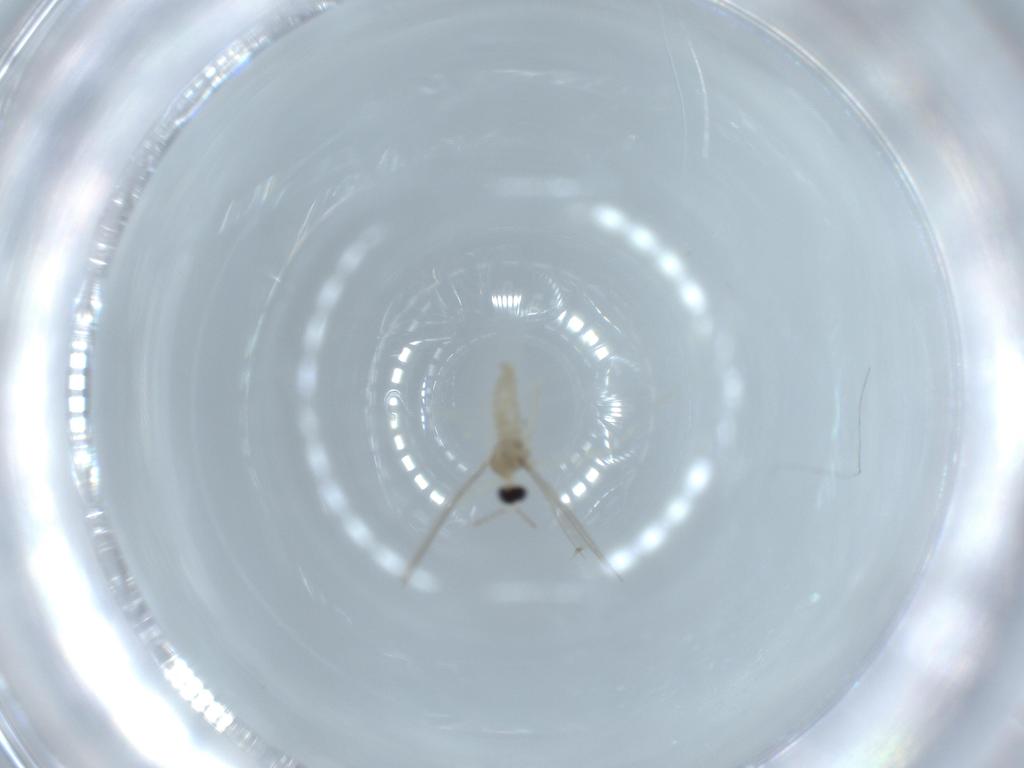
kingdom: Animalia
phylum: Arthropoda
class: Insecta
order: Diptera
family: Cecidomyiidae
